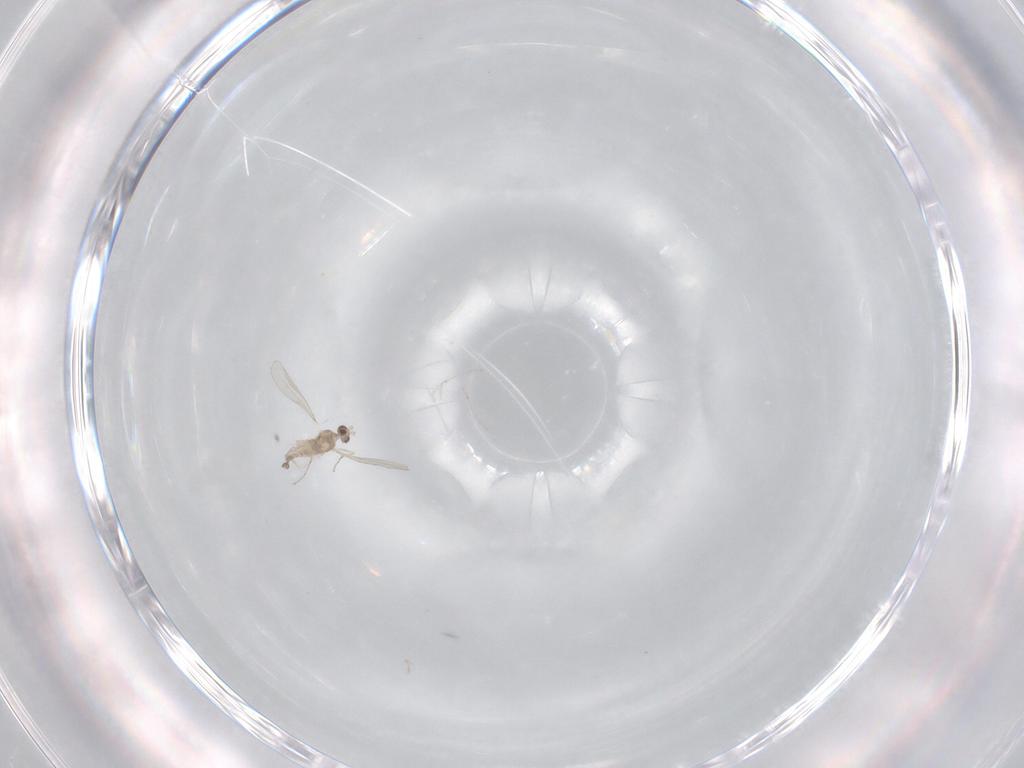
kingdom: Animalia
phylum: Arthropoda
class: Insecta
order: Diptera
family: Cecidomyiidae
